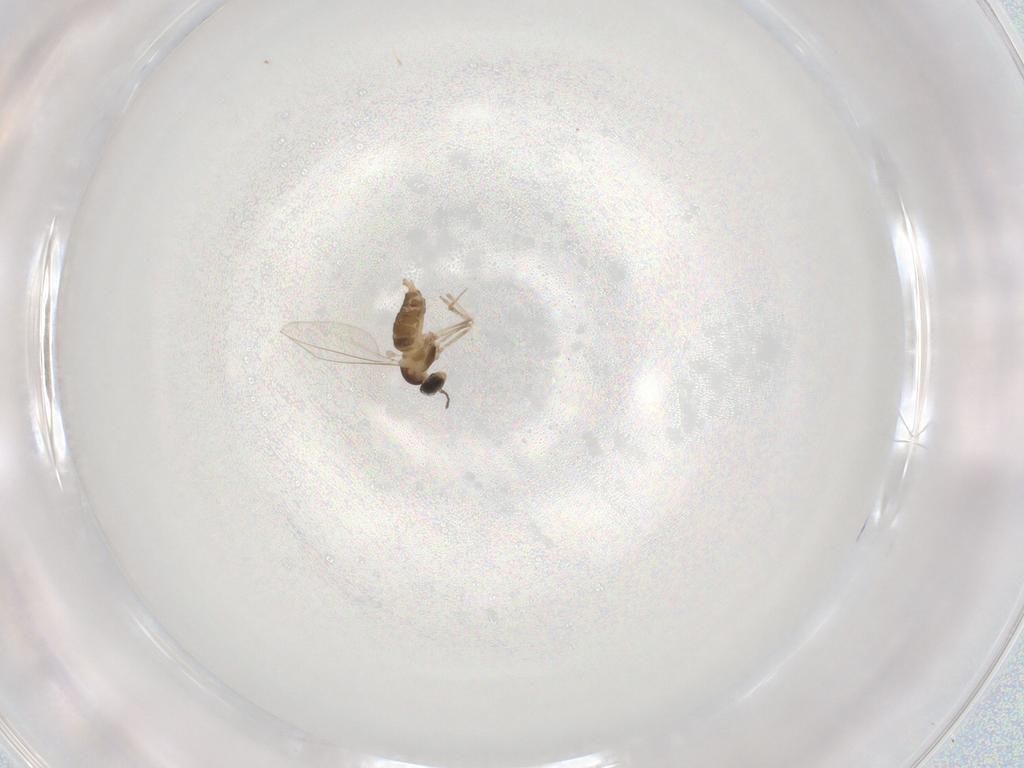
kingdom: Animalia
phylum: Arthropoda
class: Insecta
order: Diptera
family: Cecidomyiidae
